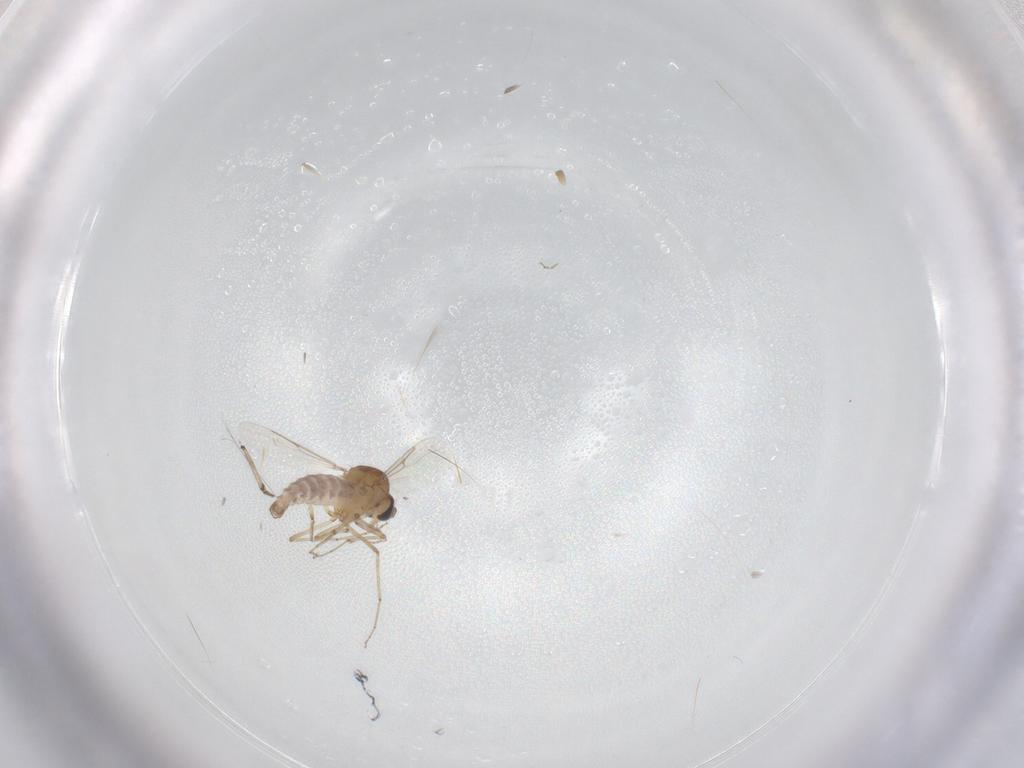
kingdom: Animalia
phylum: Arthropoda
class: Insecta
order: Diptera
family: Ceratopogonidae
